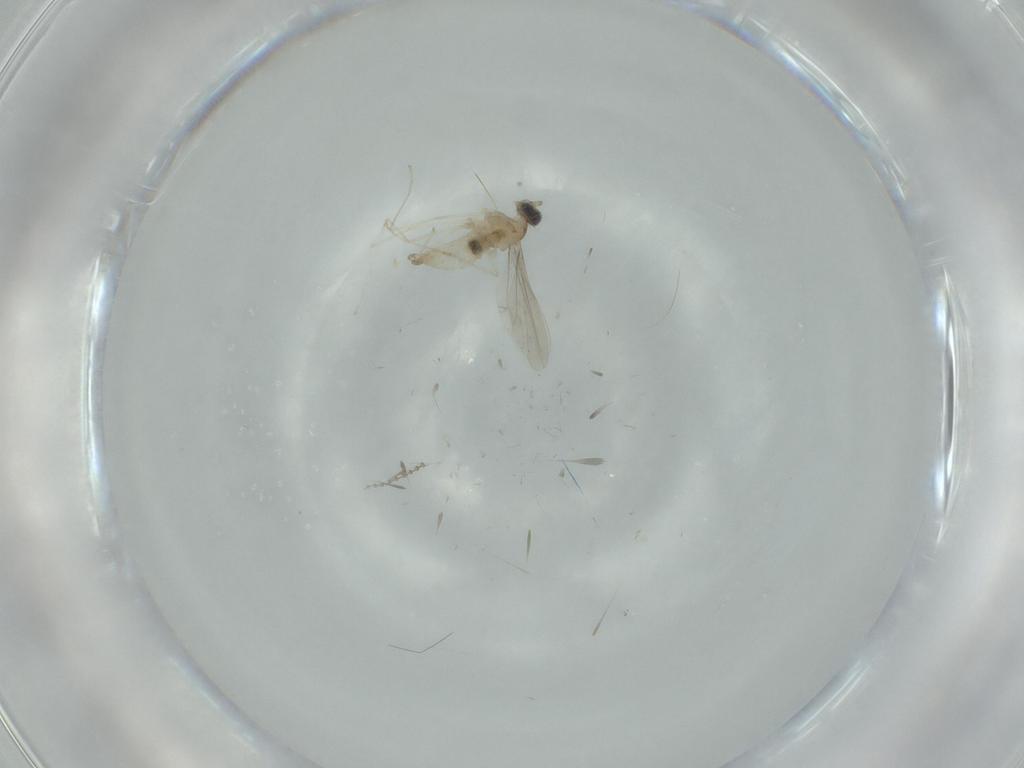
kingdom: Animalia
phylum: Arthropoda
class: Insecta
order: Diptera
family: Cecidomyiidae
